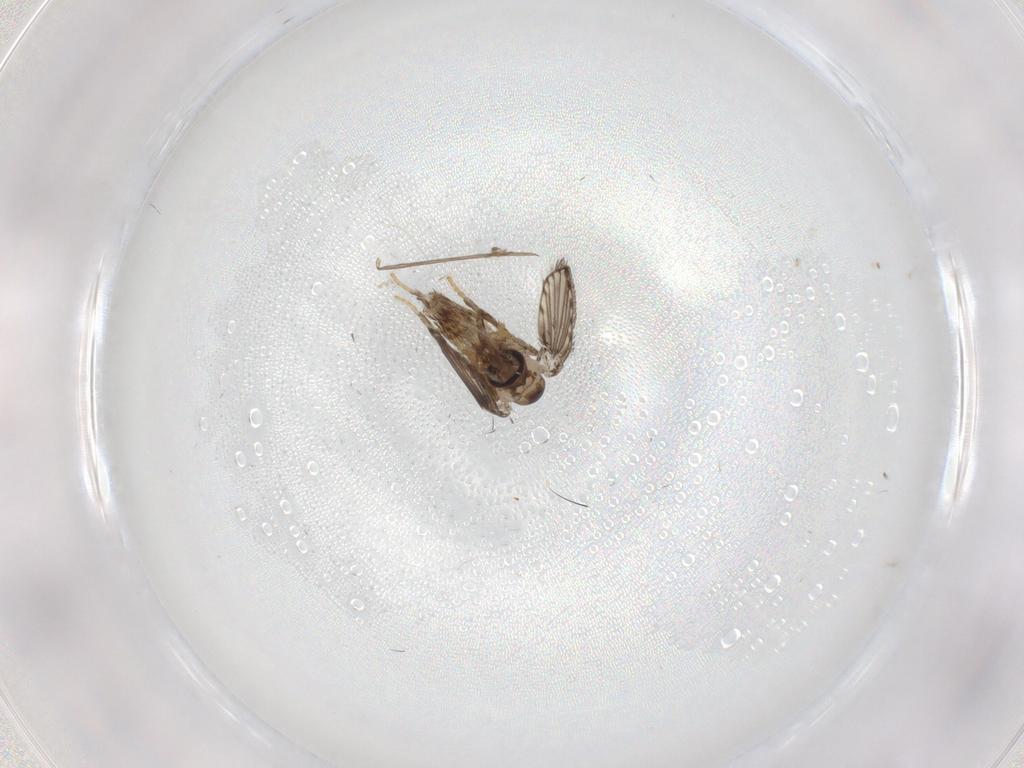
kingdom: Animalia
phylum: Arthropoda
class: Insecta
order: Diptera
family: Psychodidae
